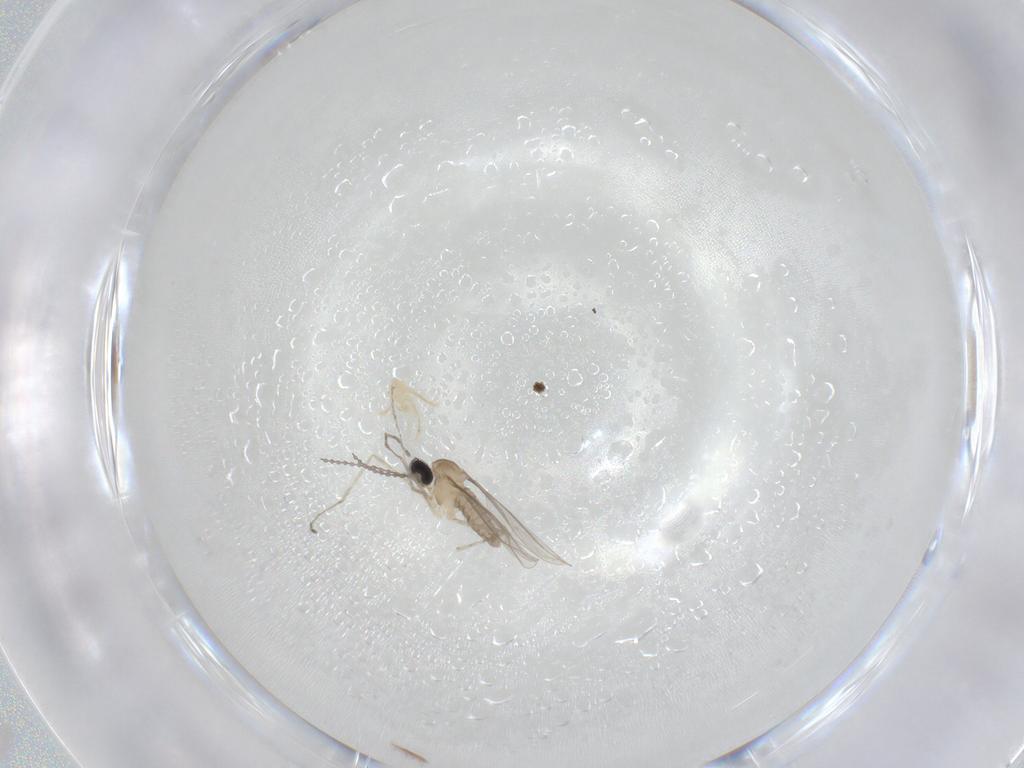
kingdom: Animalia
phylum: Arthropoda
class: Insecta
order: Diptera
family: Cecidomyiidae
